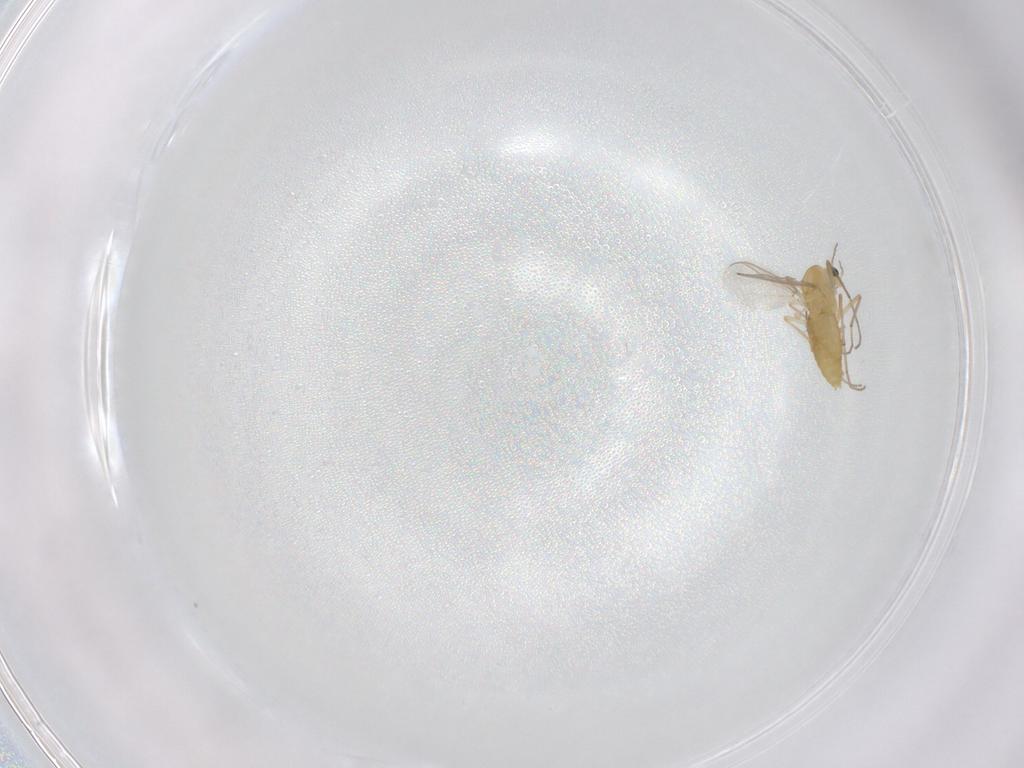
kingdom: Animalia
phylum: Arthropoda
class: Insecta
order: Diptera
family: Chironomidae
